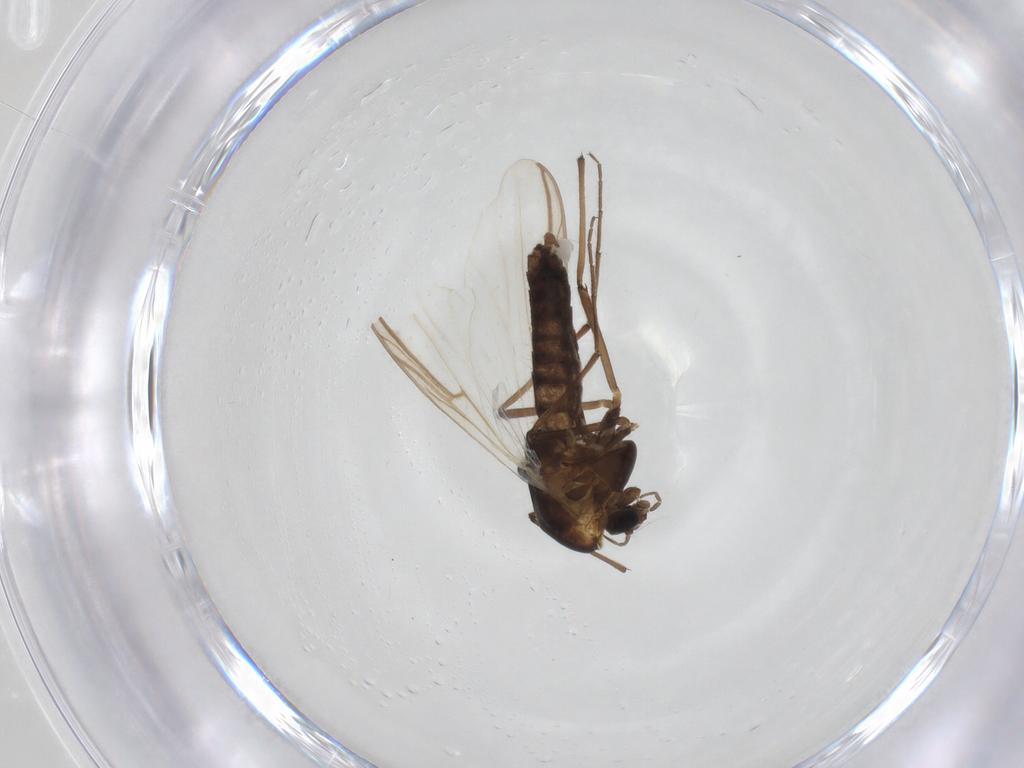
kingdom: Animalia
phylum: Arthropoda
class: Insecta
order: Diptera
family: Cecidomyiidae
